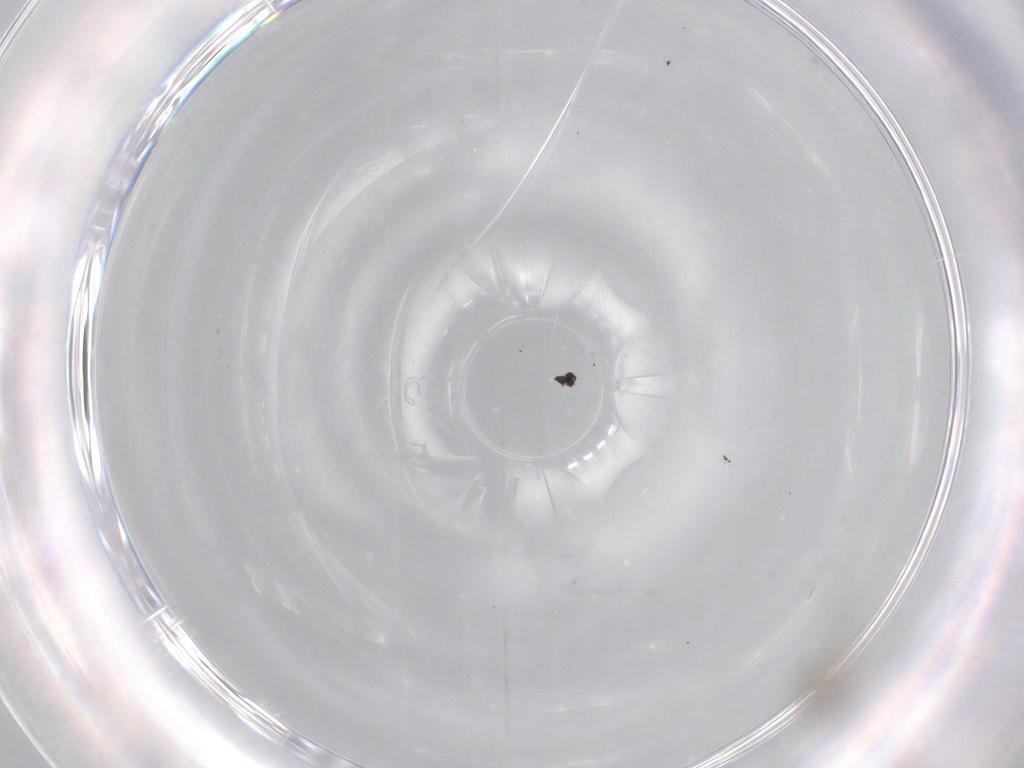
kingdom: Animalia
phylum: Arthropoda
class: Insecta
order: Diptera
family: Cecidomyiidae
